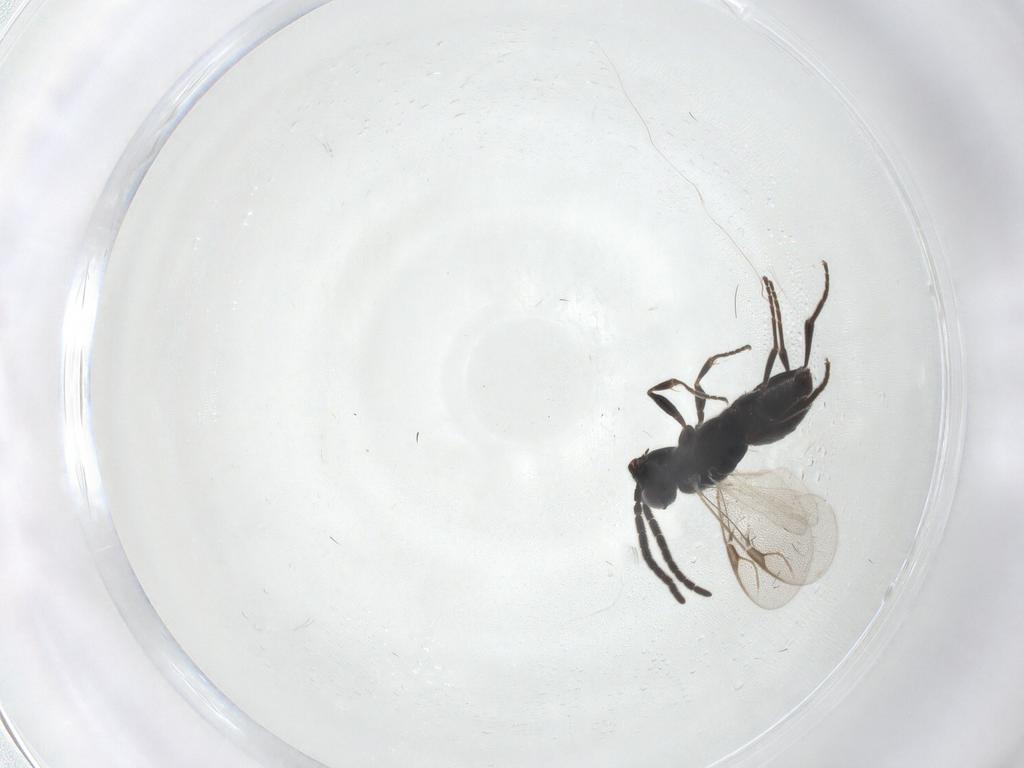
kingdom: Animalia
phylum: Arthropoda
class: Insecta
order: Hymenoptera
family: Dryinidae
